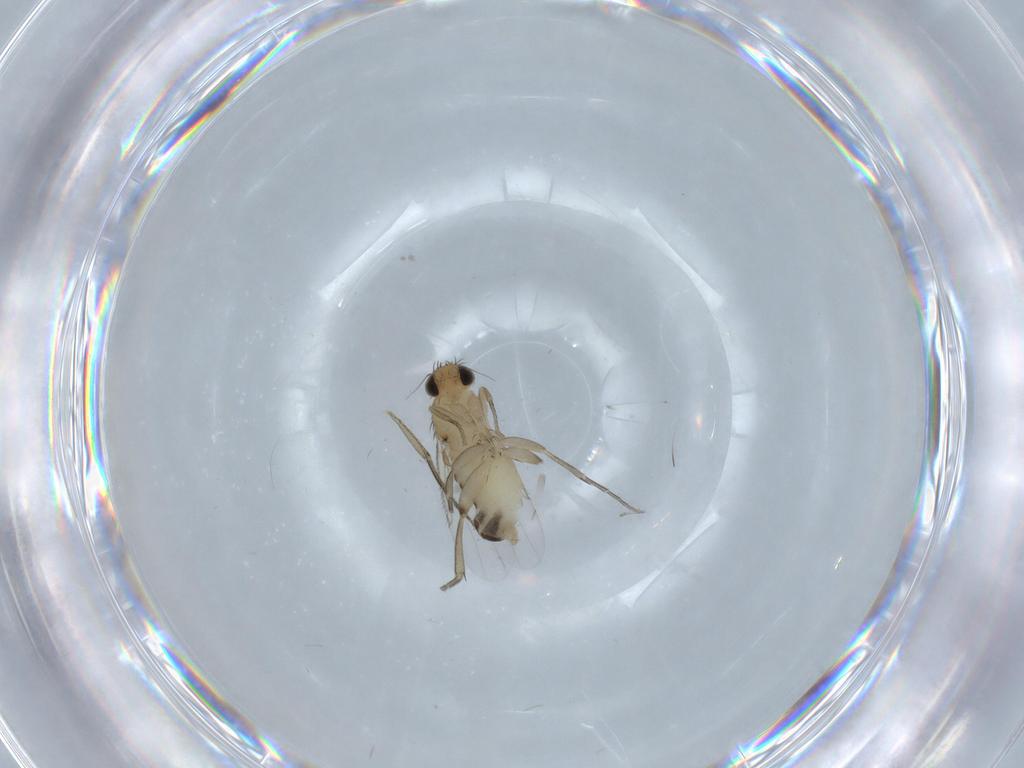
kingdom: Animalia
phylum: Arthropoda
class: Insecta
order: Diptera
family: Phoridae
